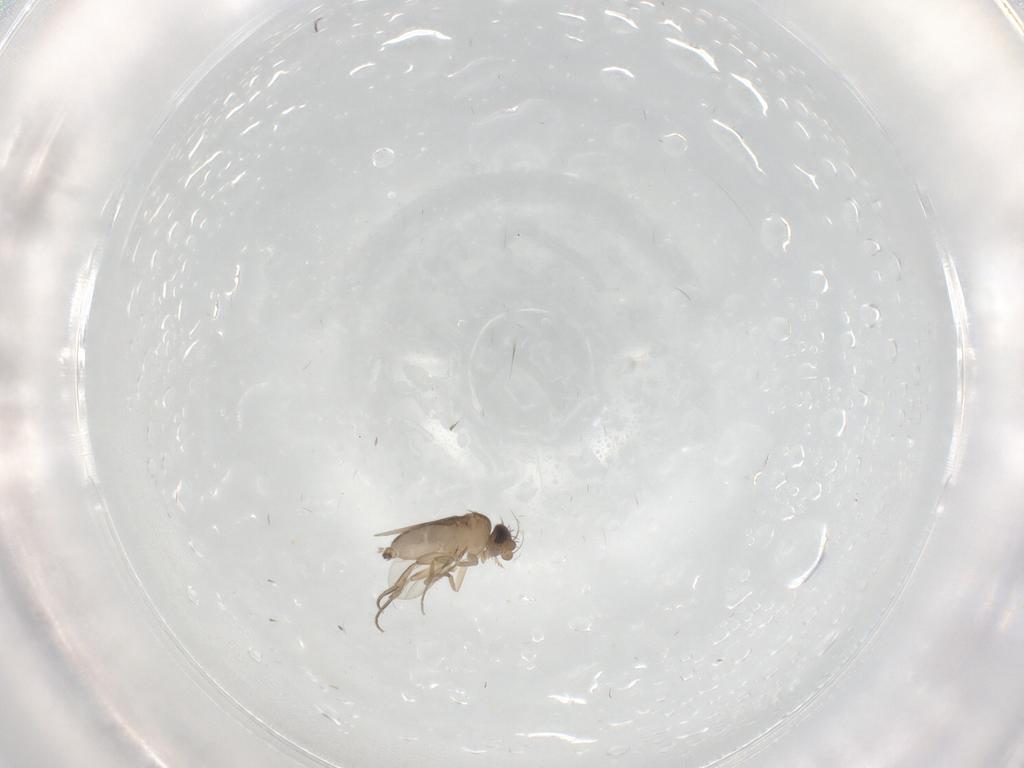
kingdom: Animalia
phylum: Arthropoda
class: Insecta
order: Diptera
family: Phoridae
